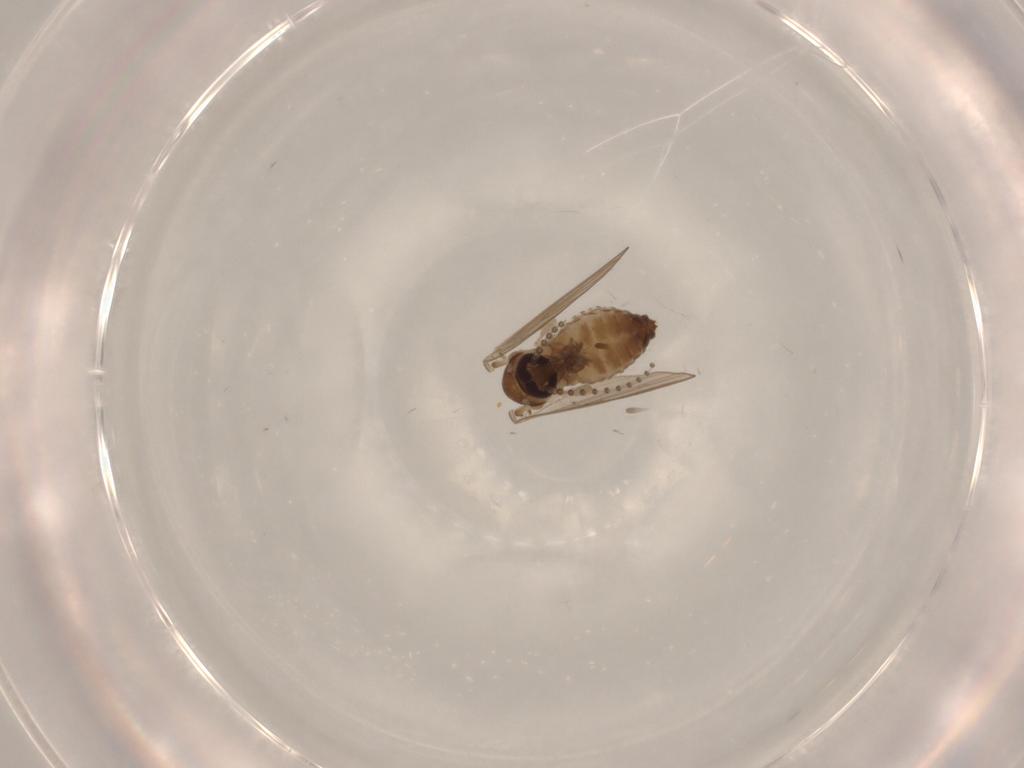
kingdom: Animalia
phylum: Arthropoda
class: Insecta
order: Diptera
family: Psychodidae
